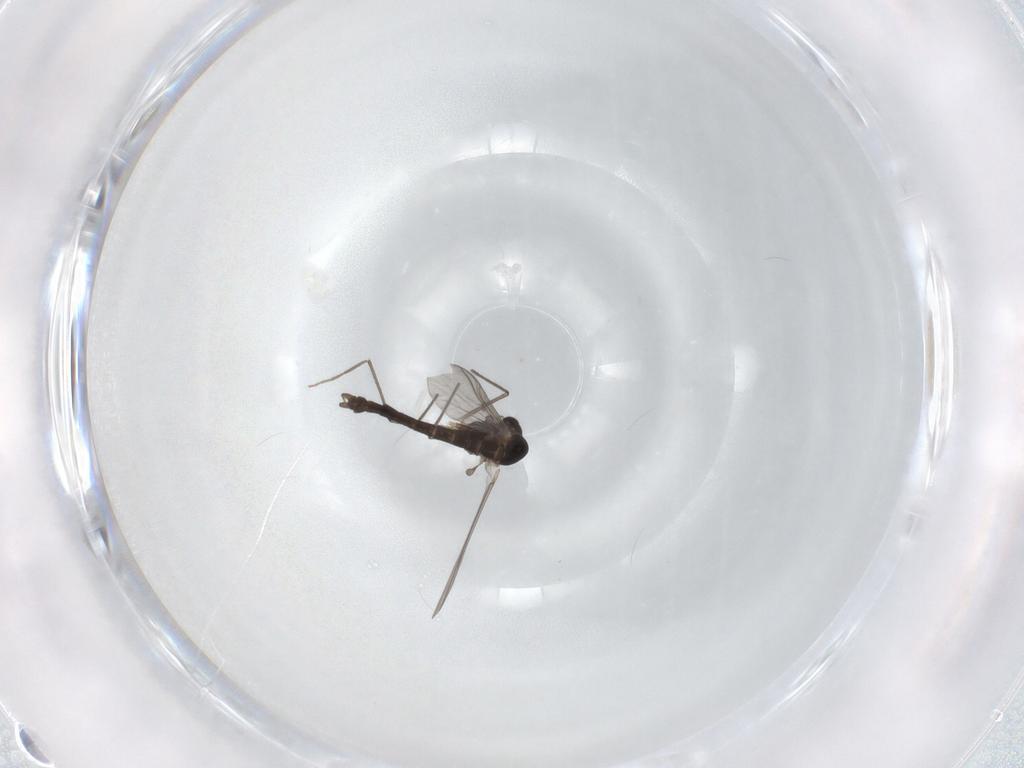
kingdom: Animalia
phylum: Arthropoda
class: Insecta
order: Diptera
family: Chironomidae
